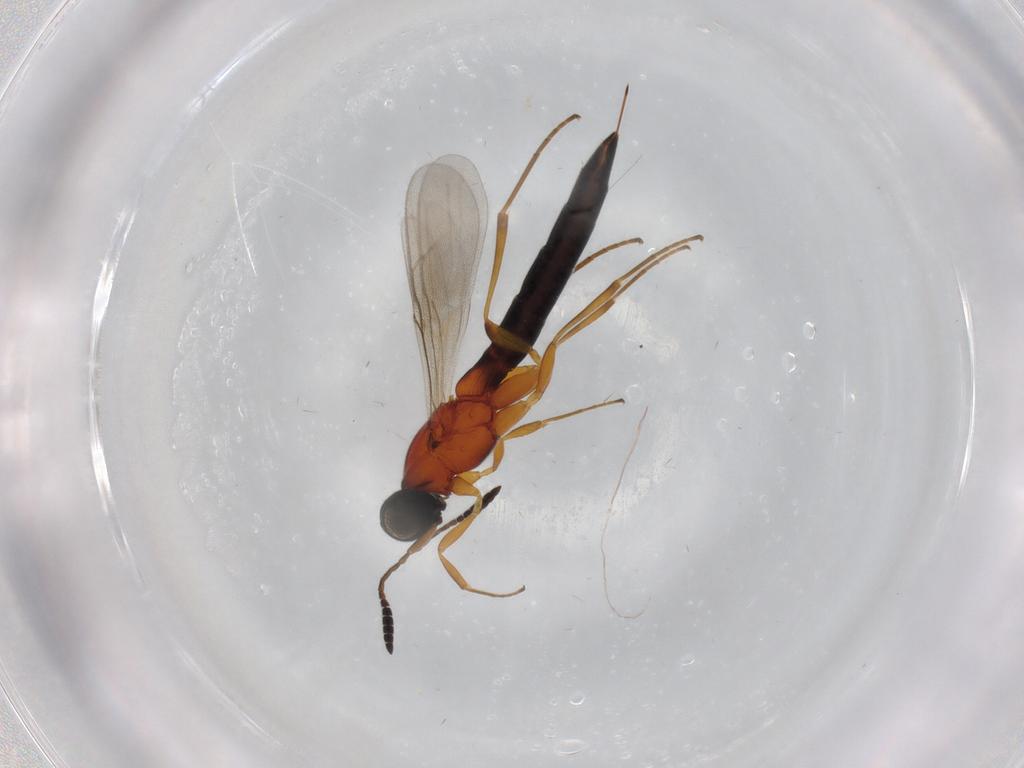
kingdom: Animalia
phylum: Arthropoda
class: Insecta
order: Hymenoptera
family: Scelionidae
